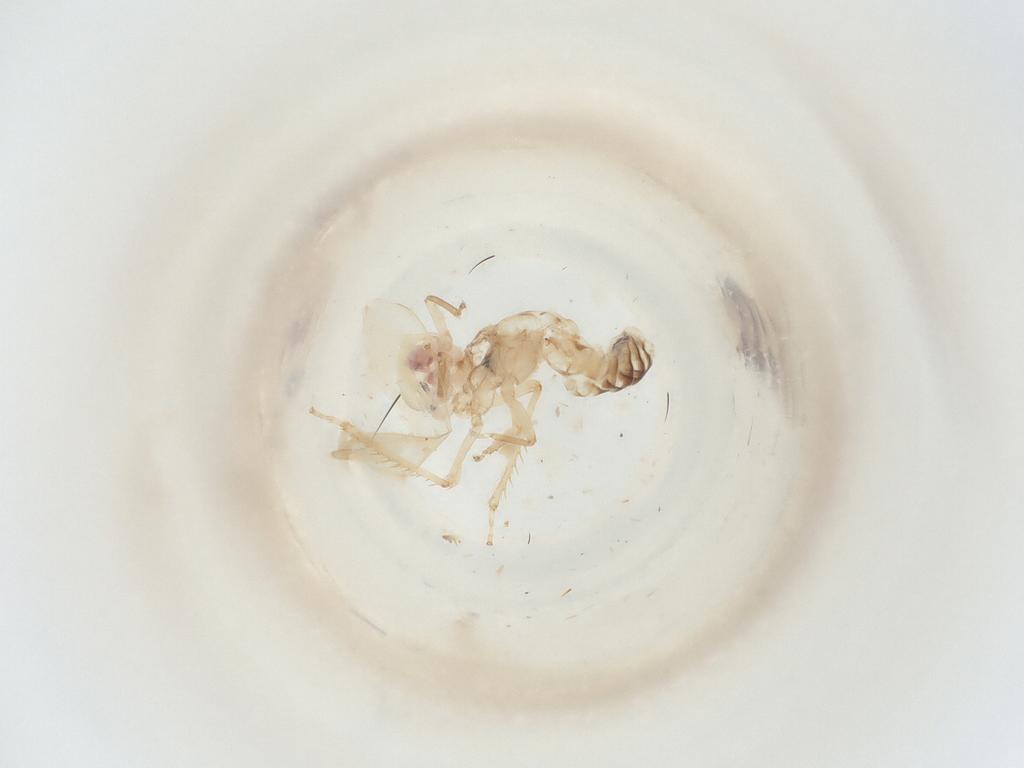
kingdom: Animalia
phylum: Arthropoda
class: Insecta
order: Hemiptera
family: Cicadellidae
